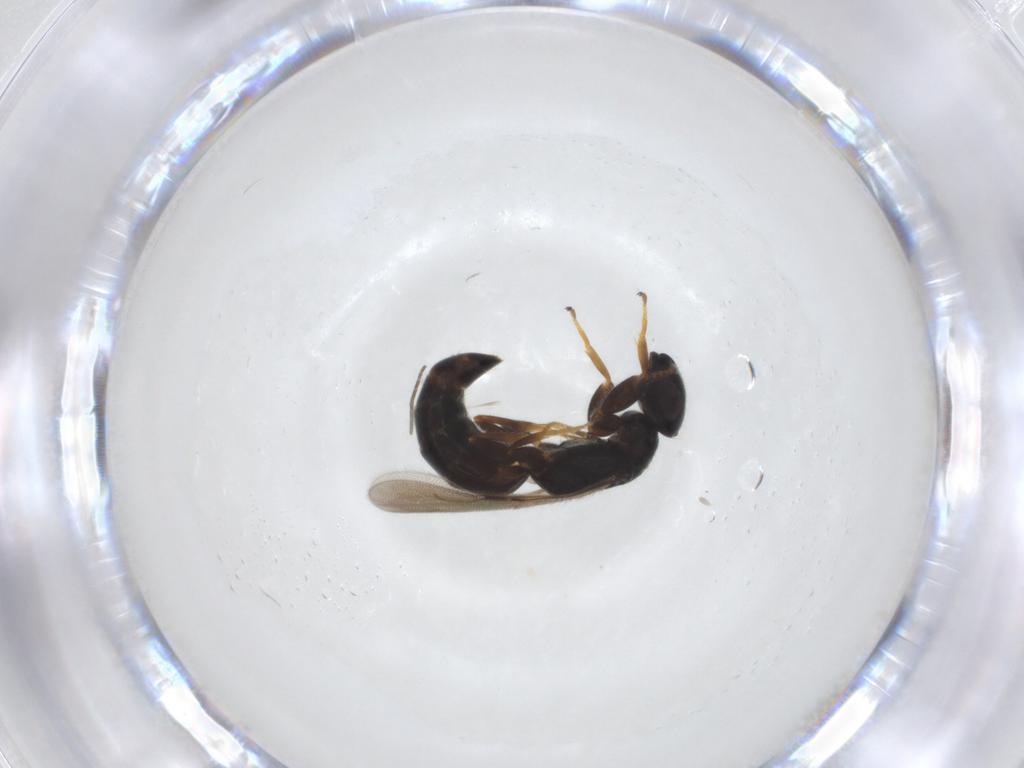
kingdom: Animalia
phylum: Arthropoda
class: Insecta
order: Hymenoptera
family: Bethylidae
